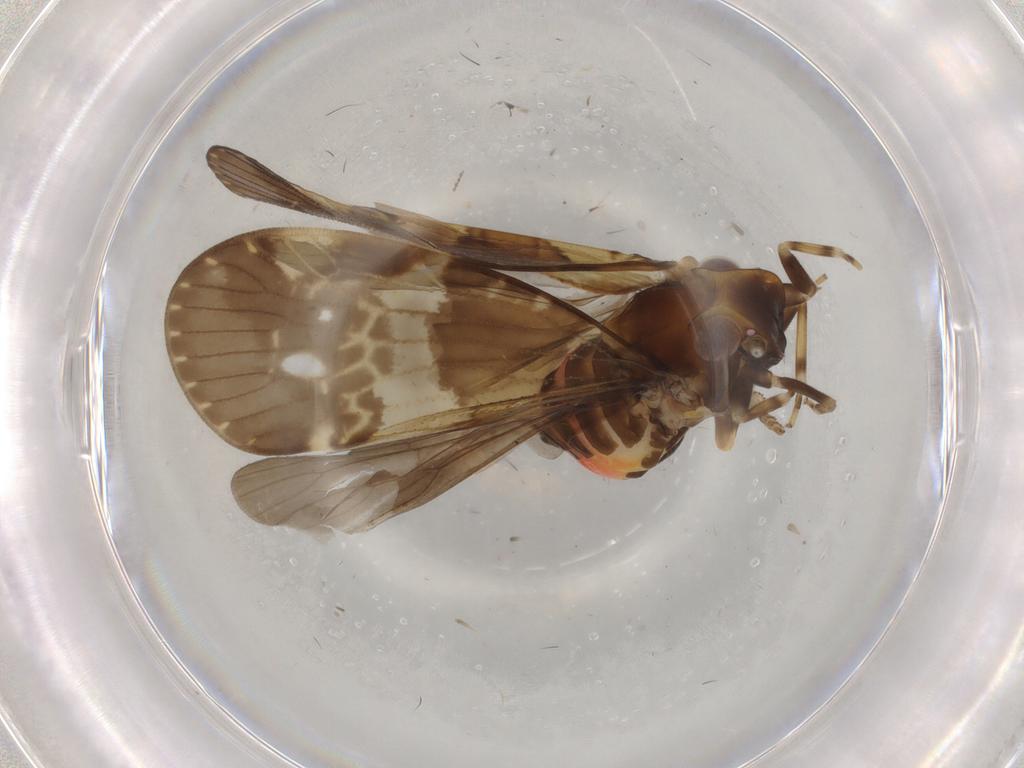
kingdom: Animalia
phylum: Arthropoda
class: Insecta
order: Hemiptera
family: Cixiidae
